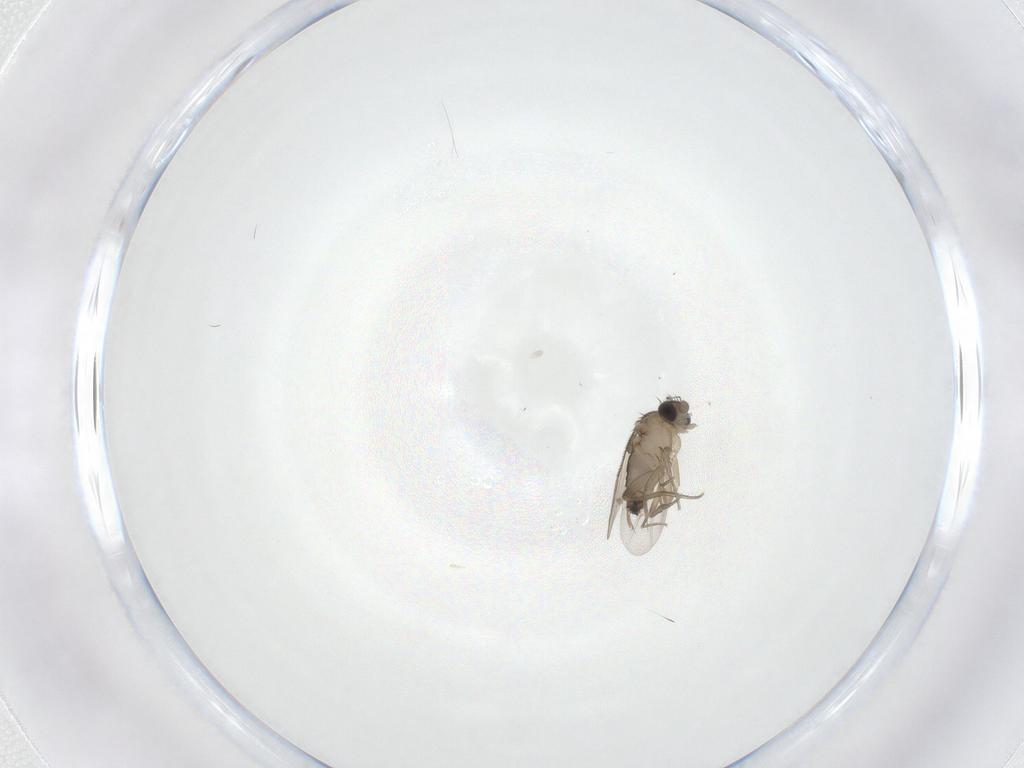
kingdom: Animalia
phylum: Arthropoda
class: Insecta
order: Diptera
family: Phoridae
